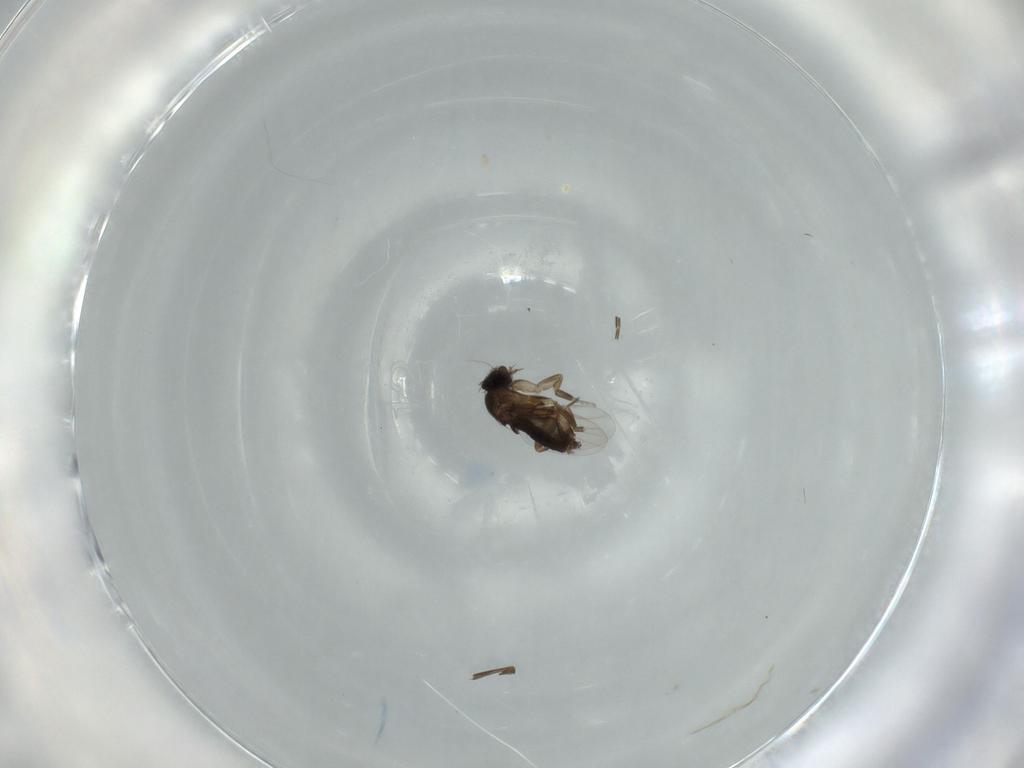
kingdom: Animalia
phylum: Arthropoda
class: Insecta
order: Diptera
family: Phoridae
